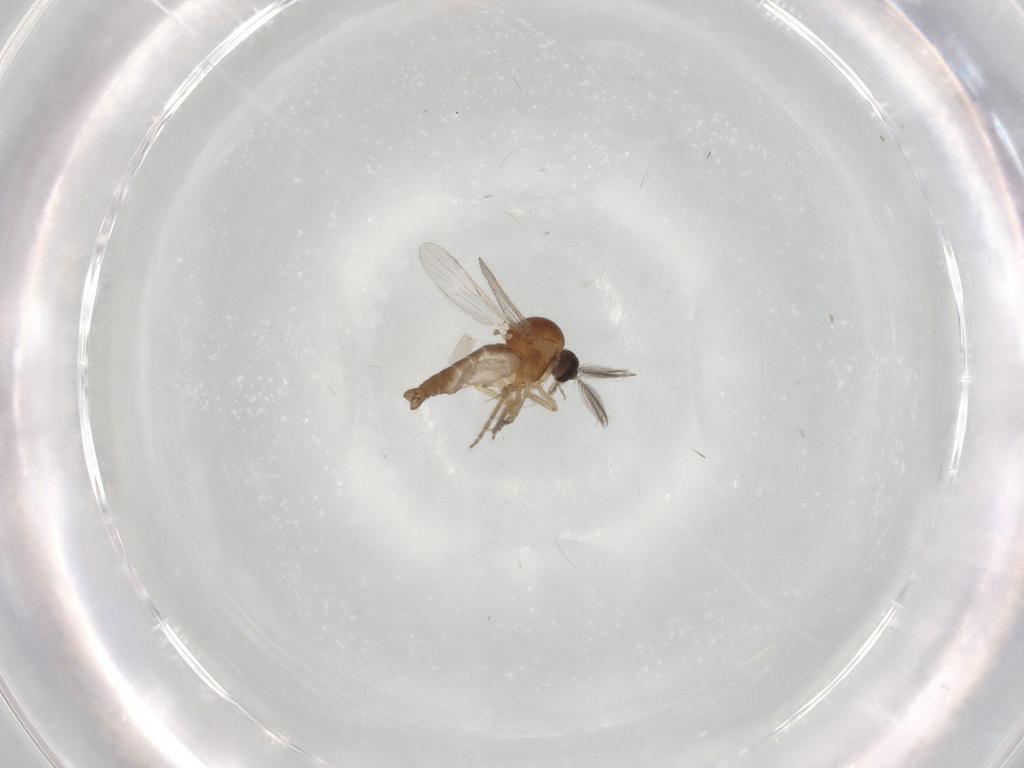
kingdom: Animalia
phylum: Arthropoda
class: Insecta
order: Diptera
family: Ceratopogonidae
